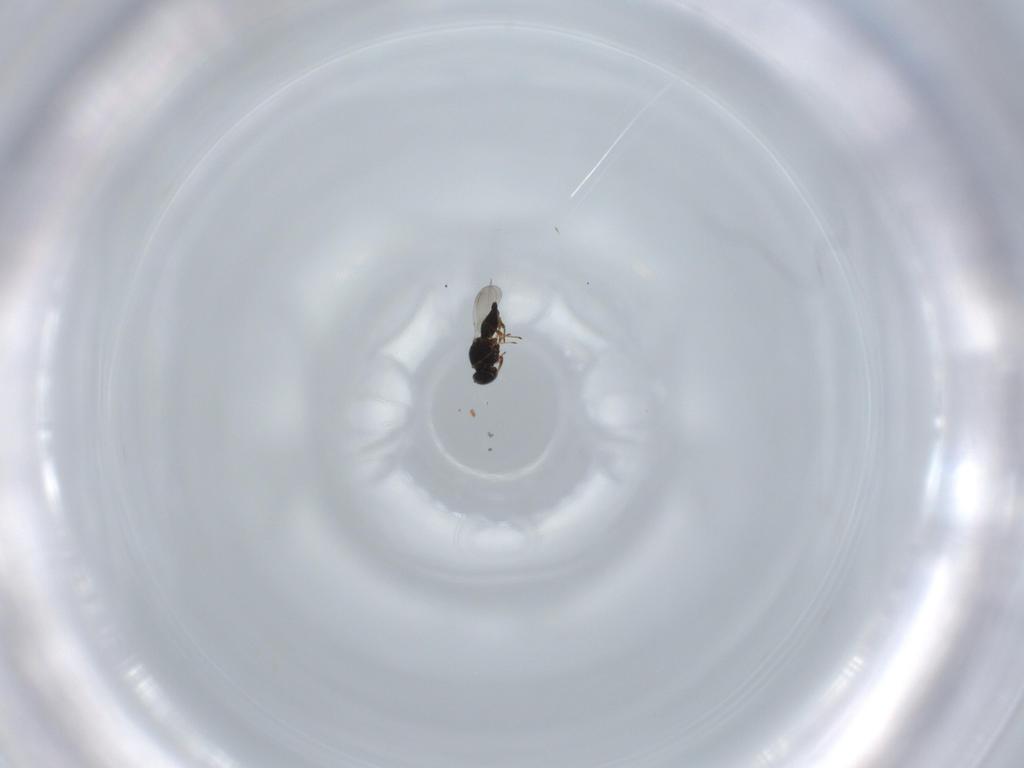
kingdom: Animalia
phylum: Arthropoda
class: Insecta
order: Hymenoptera
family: Platygastridae
